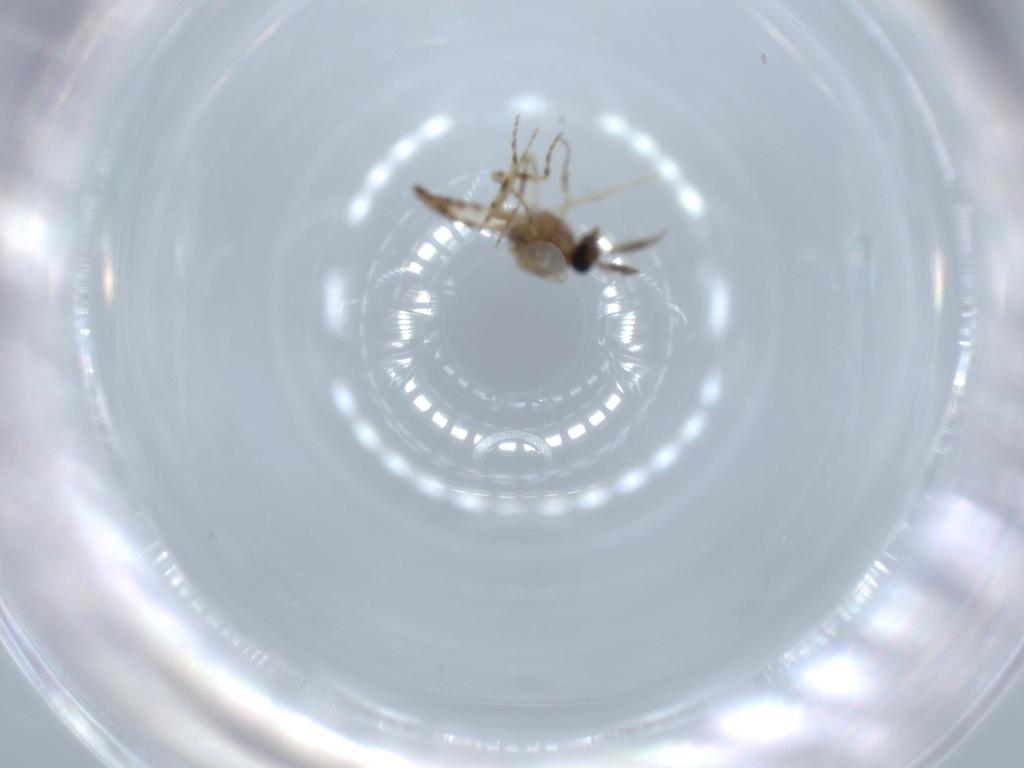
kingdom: Animalia
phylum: Arthropoda
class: Insecta
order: Diptera
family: Ceratopogonidae
